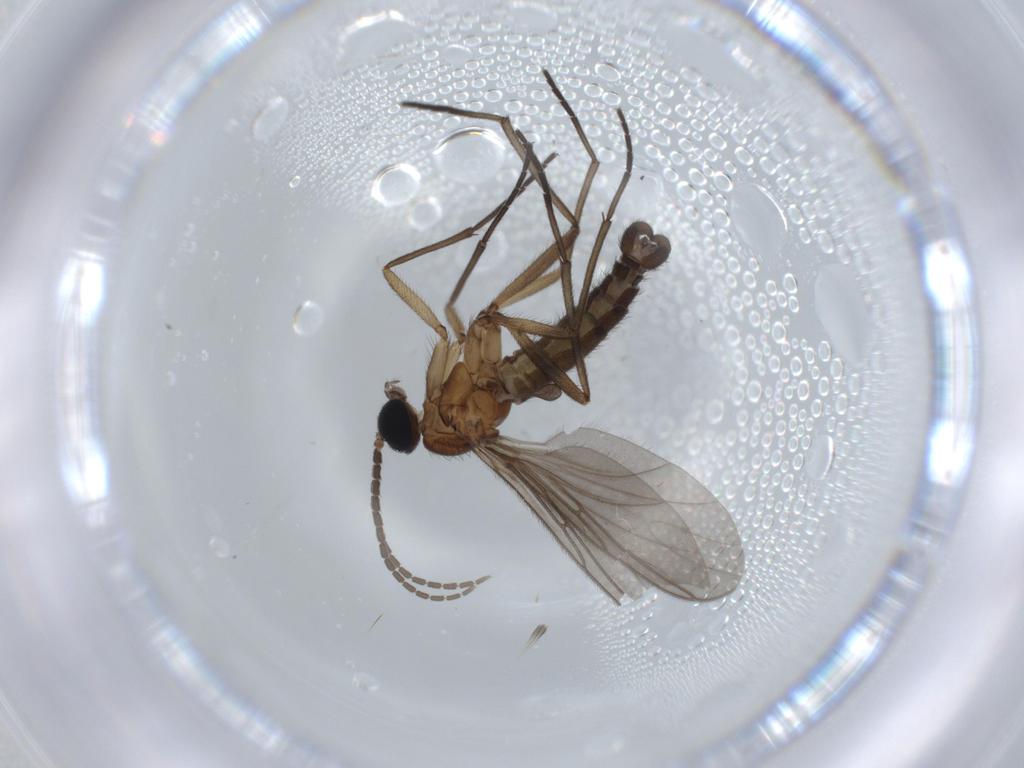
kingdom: Animalia
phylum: Arthropoda
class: Insecta
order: Diptera
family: Sciaridae
